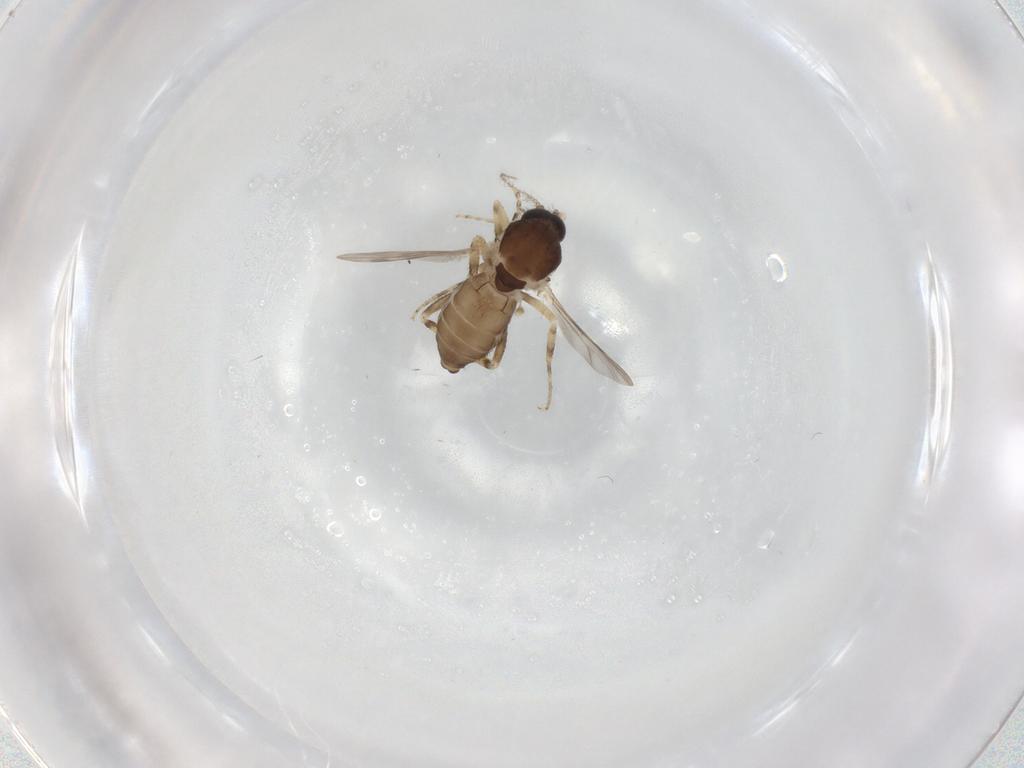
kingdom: Animalia
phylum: Arthropoda
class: Insecta
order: Diptera
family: Ceratopogonidae
